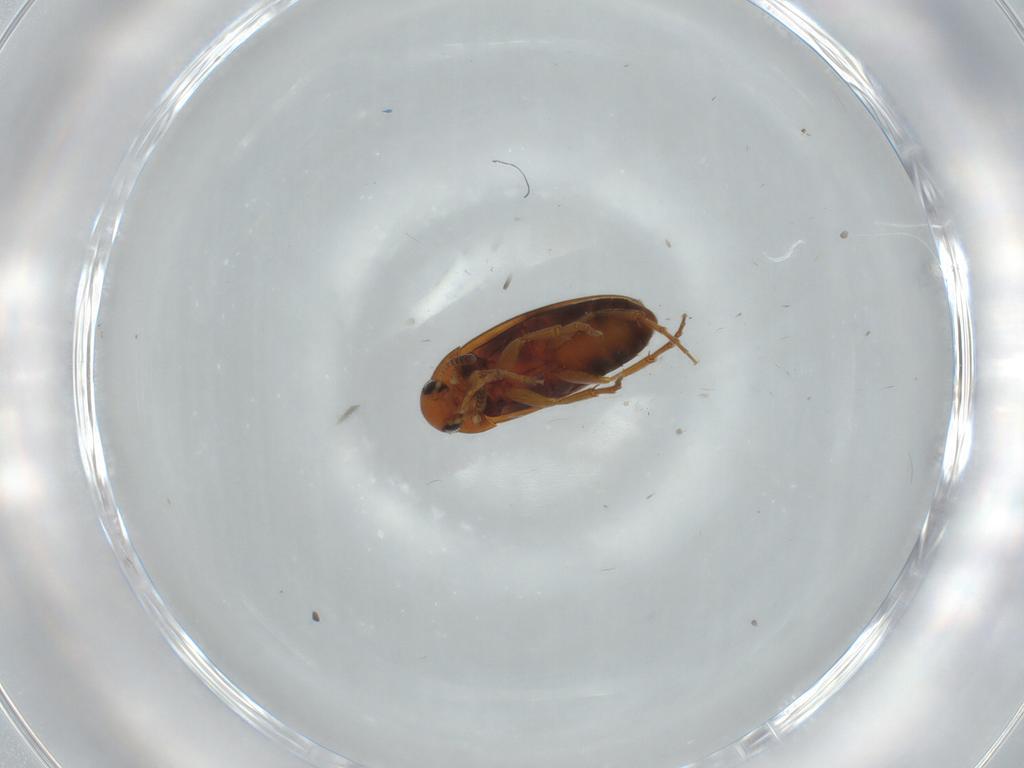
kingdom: Animalia
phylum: Arthropoda
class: Insecta
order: Coleoptera
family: Scraptiidae
